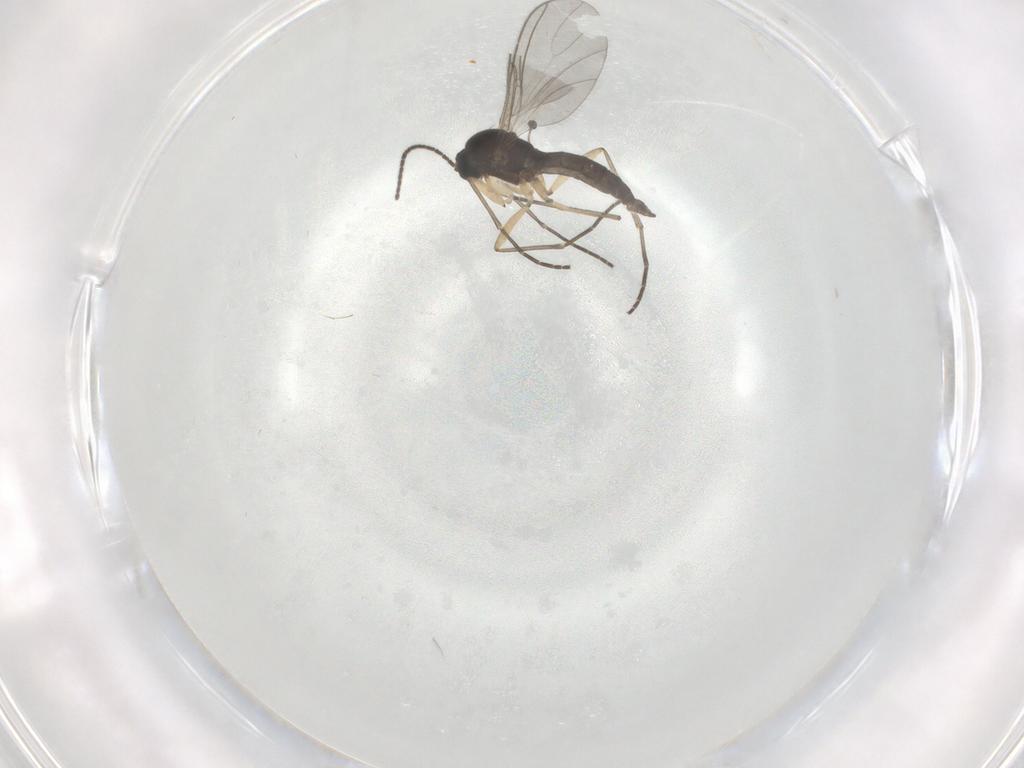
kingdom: Animalia
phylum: Arthropoda
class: Insecta
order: Diptera
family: Sciaridae
